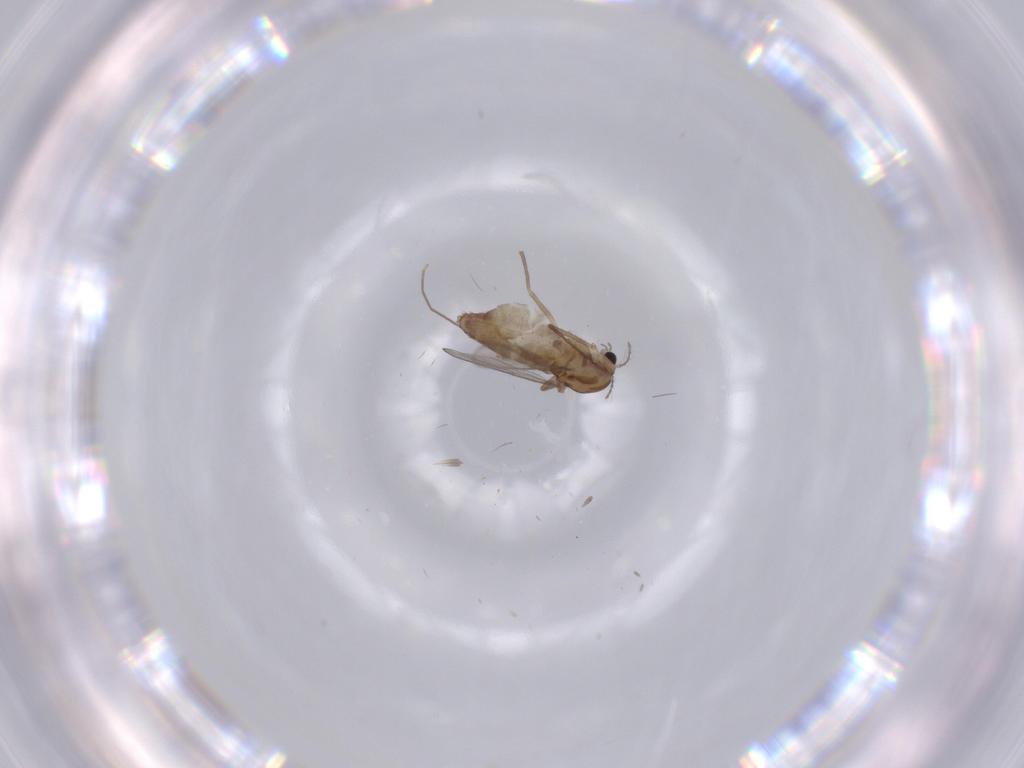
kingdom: Animalia
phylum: Arthropoda
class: Insecta
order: Diptera
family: Chironomidae
